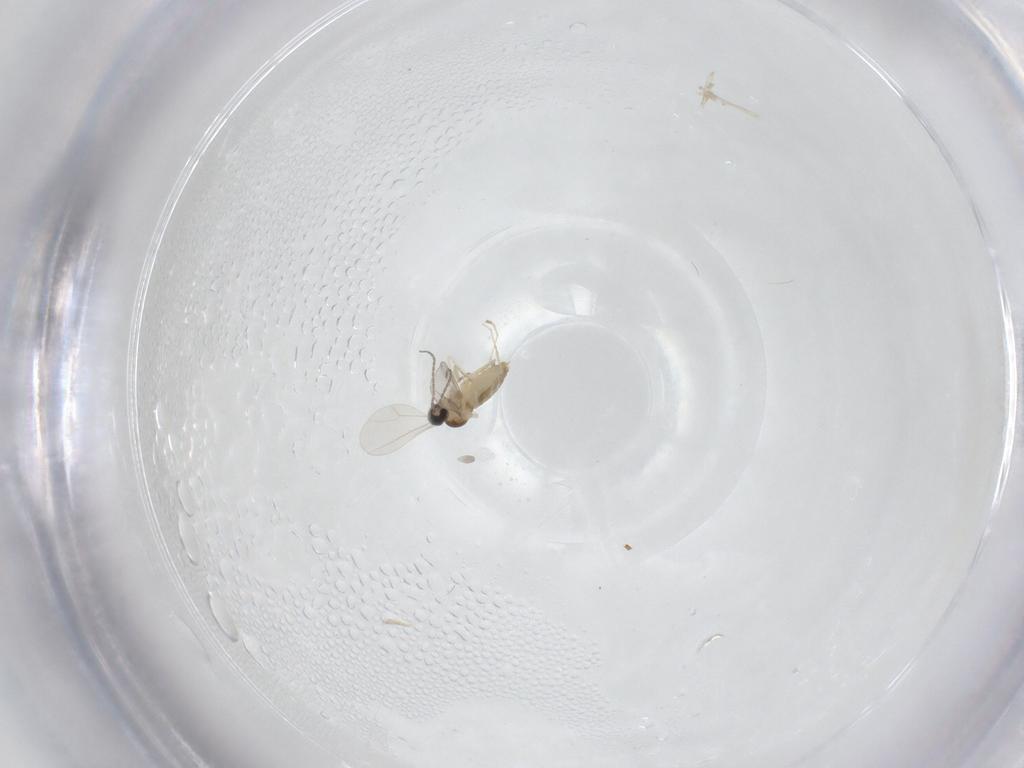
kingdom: Animalia
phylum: Arthropoda
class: Insecta
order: Diptera
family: Cecidomyiidae
